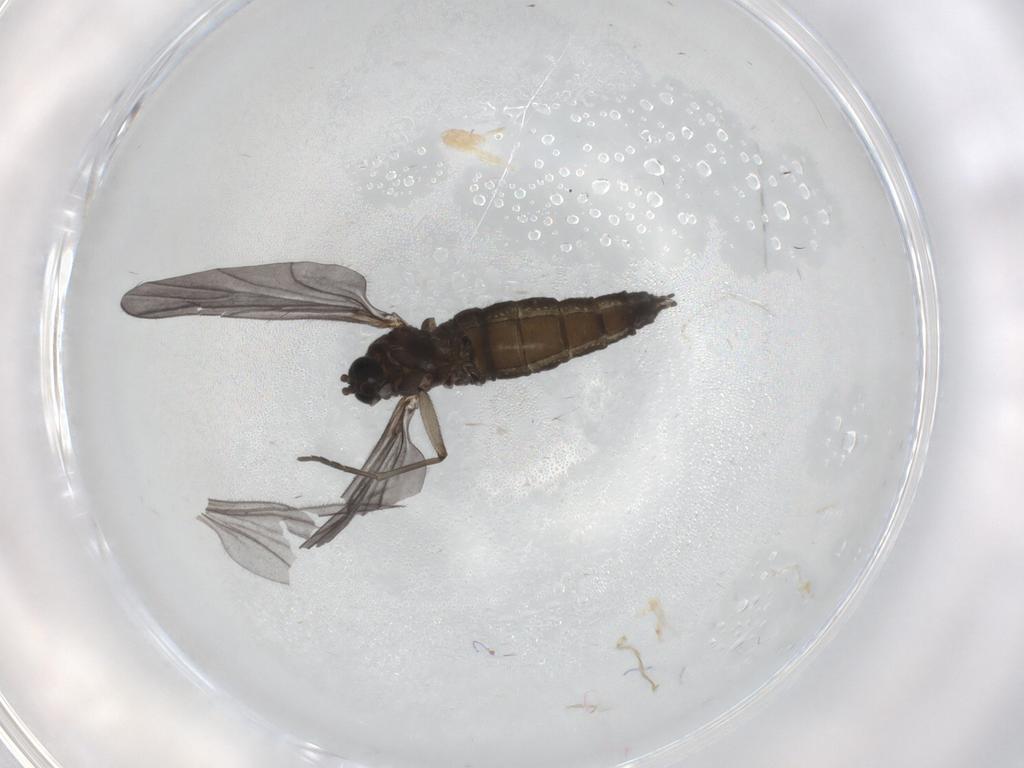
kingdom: Animalia
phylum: Arthropoda
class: Insecta
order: Diptera
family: Sciaridae
